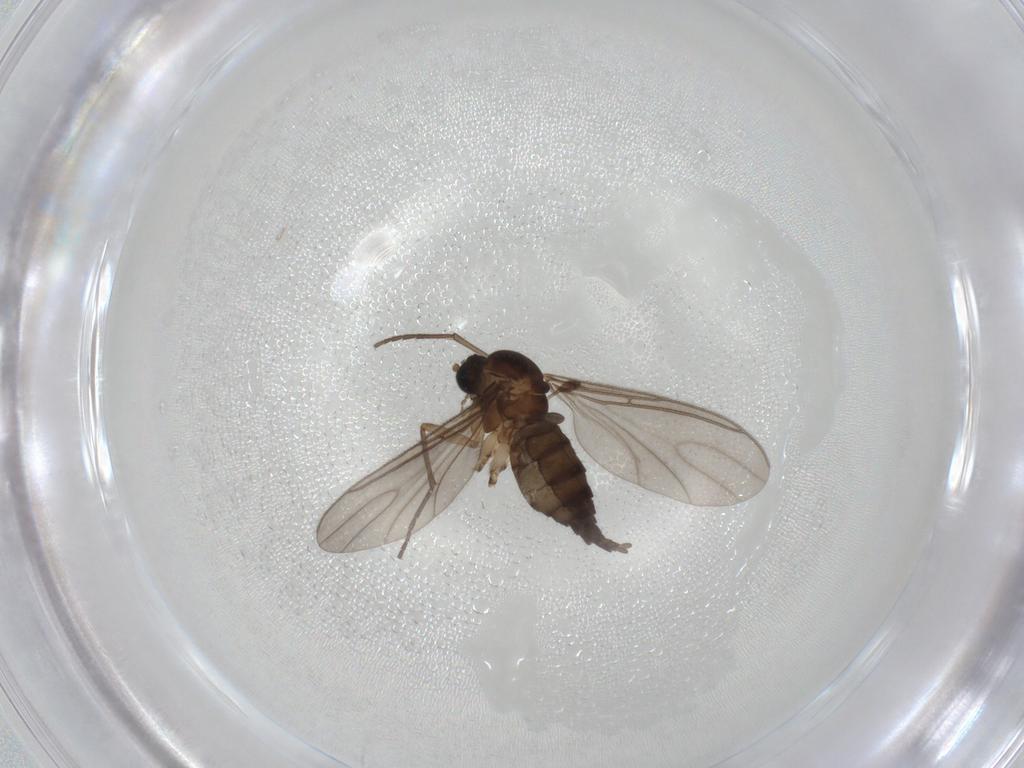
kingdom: Animalia
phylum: Arthropoda
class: Insecta
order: Diptera
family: Sciaridae
